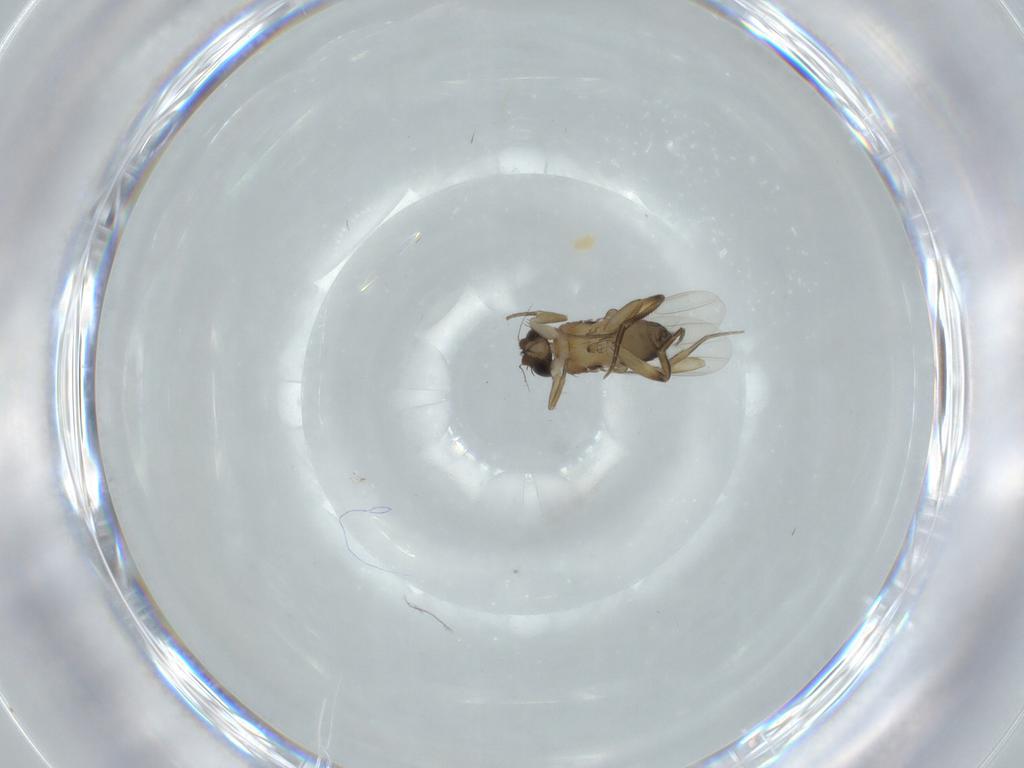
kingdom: Animalia
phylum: Arthropoda
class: Insecta
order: Diptera
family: Phoridae
